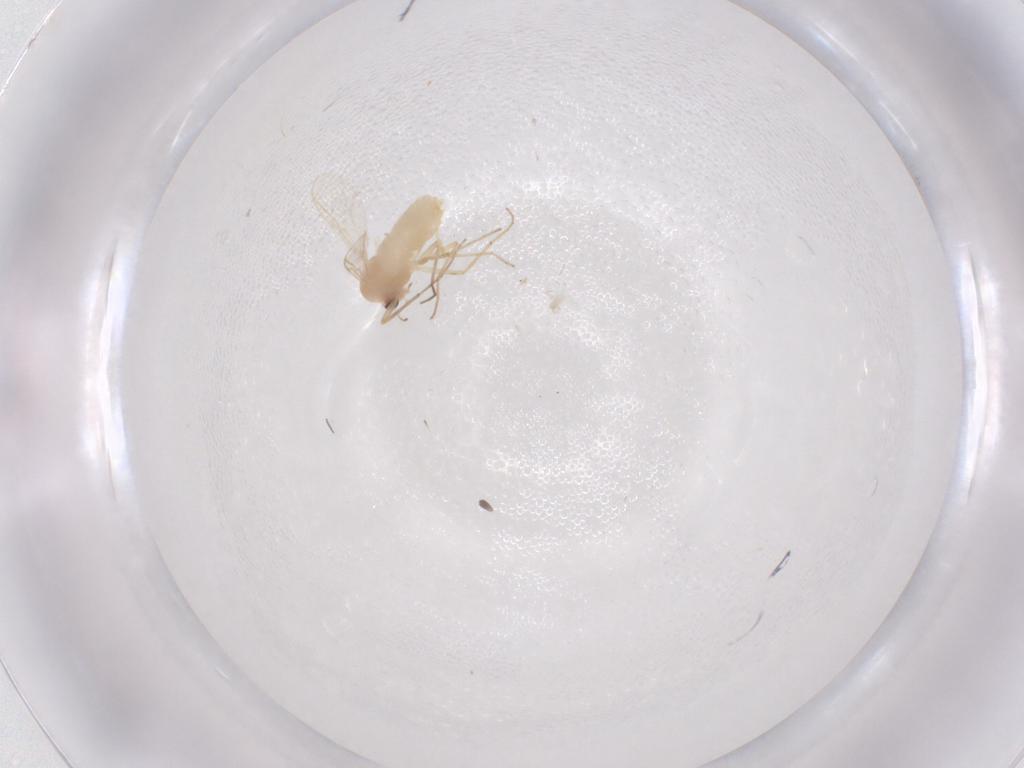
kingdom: Animalia
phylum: Arthropoda
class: Insecta
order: Diptera
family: Chironomidae
